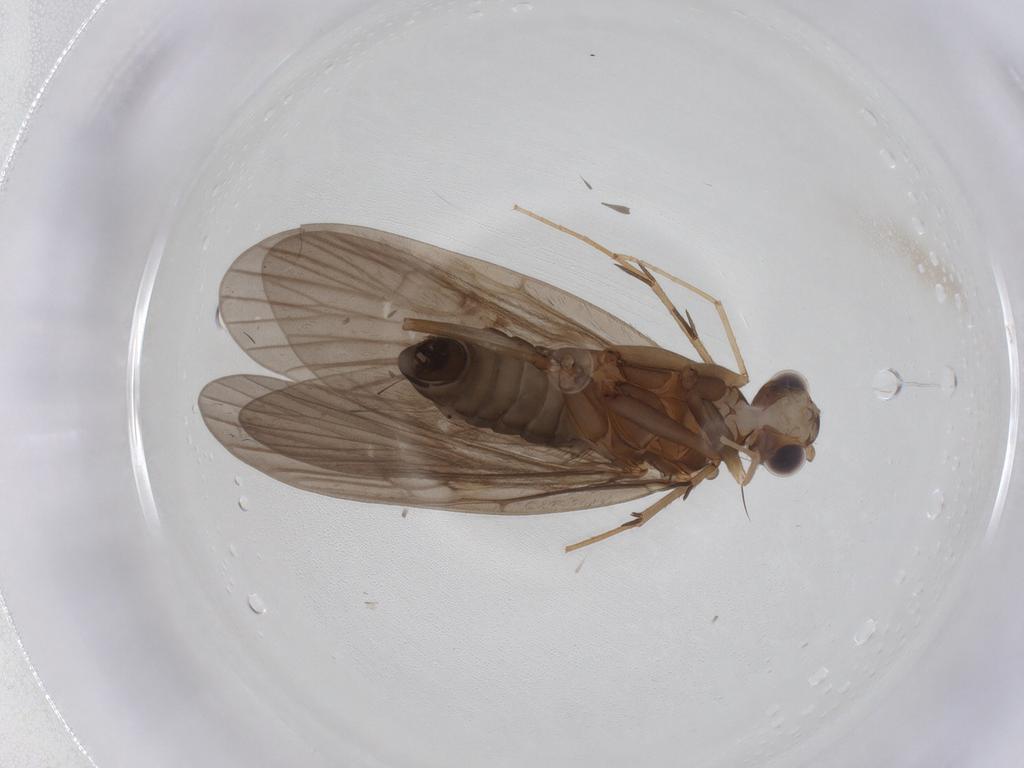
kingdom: Animalia
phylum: Arthropoda
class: Insecta
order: Trichoptera
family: Philopotamidae
